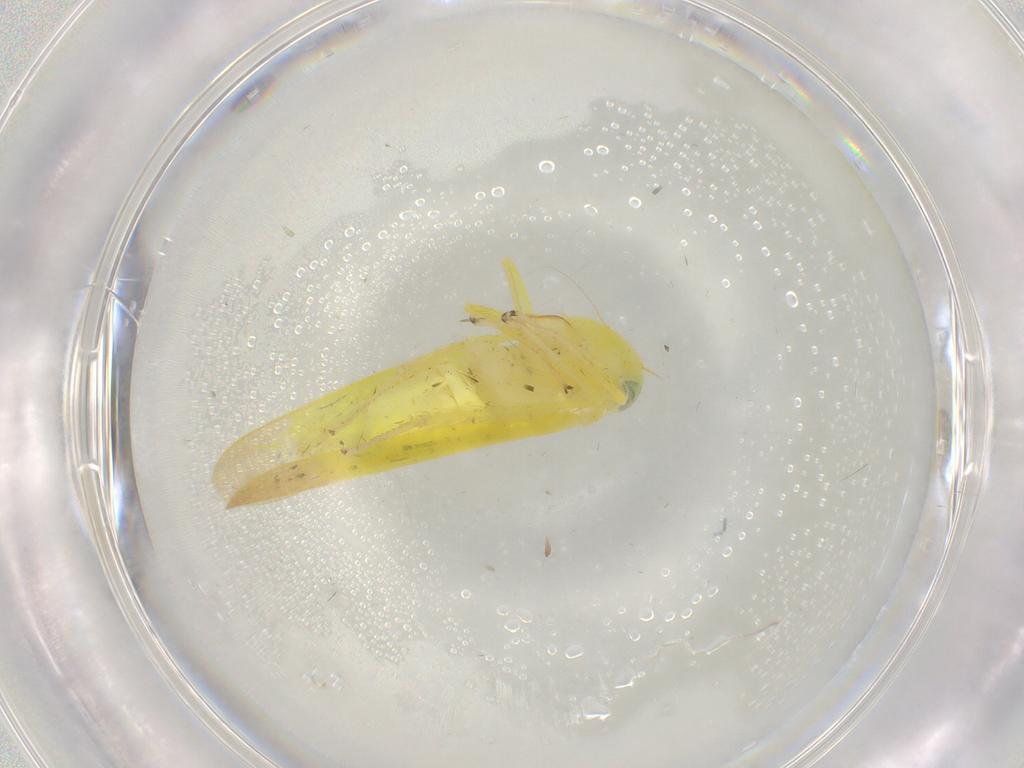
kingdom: Animalia
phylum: Arthropoda
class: Insecta
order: Hemiptera
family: Cicadellidae
